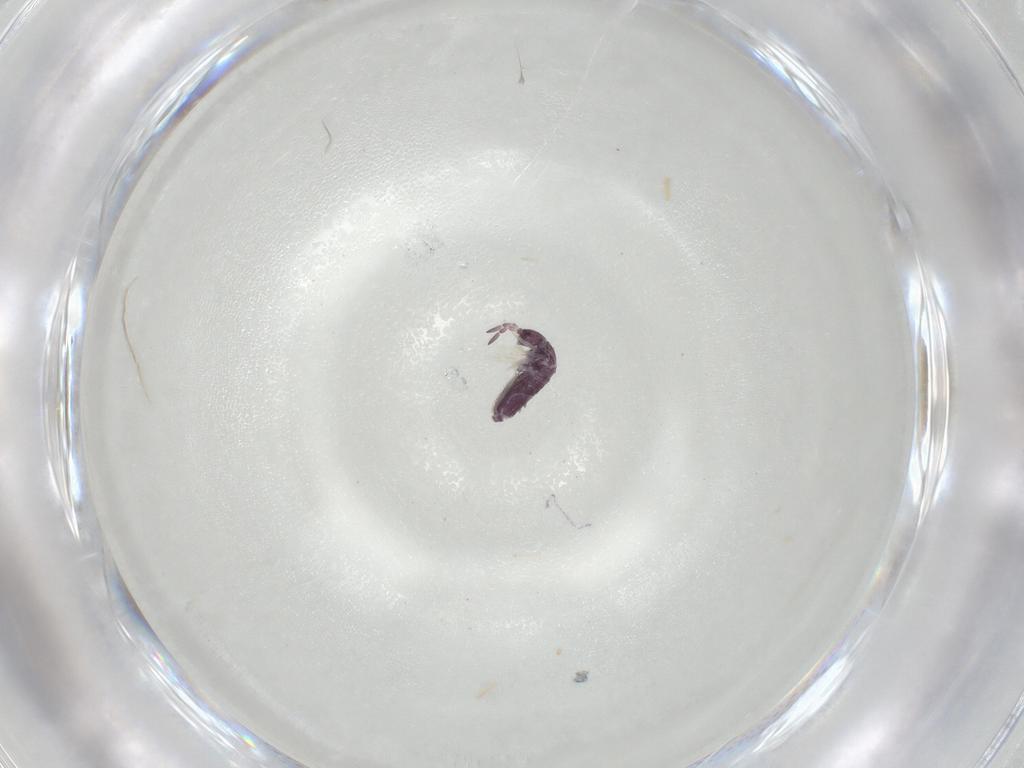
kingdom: Animalia
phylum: Arthropoda
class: Collembola
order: Entomobryomorpha
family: Entomobryidae
